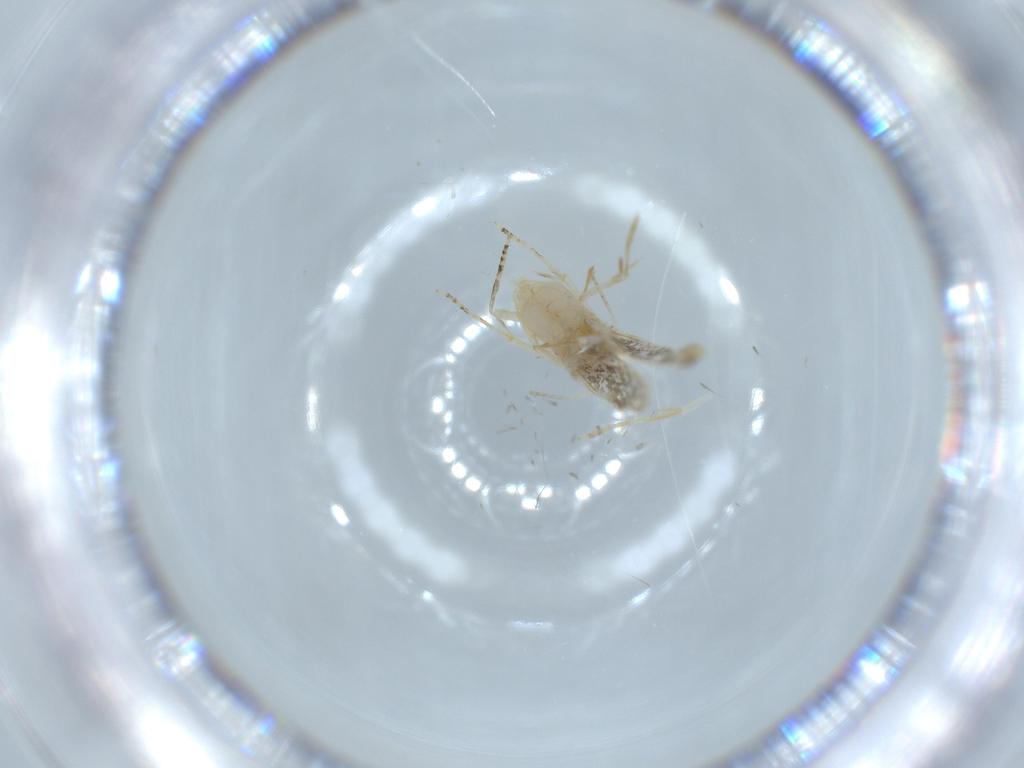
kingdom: Animalia
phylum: Arthropoda
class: Insecta
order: Lepidoptera
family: Bucculatricidae
